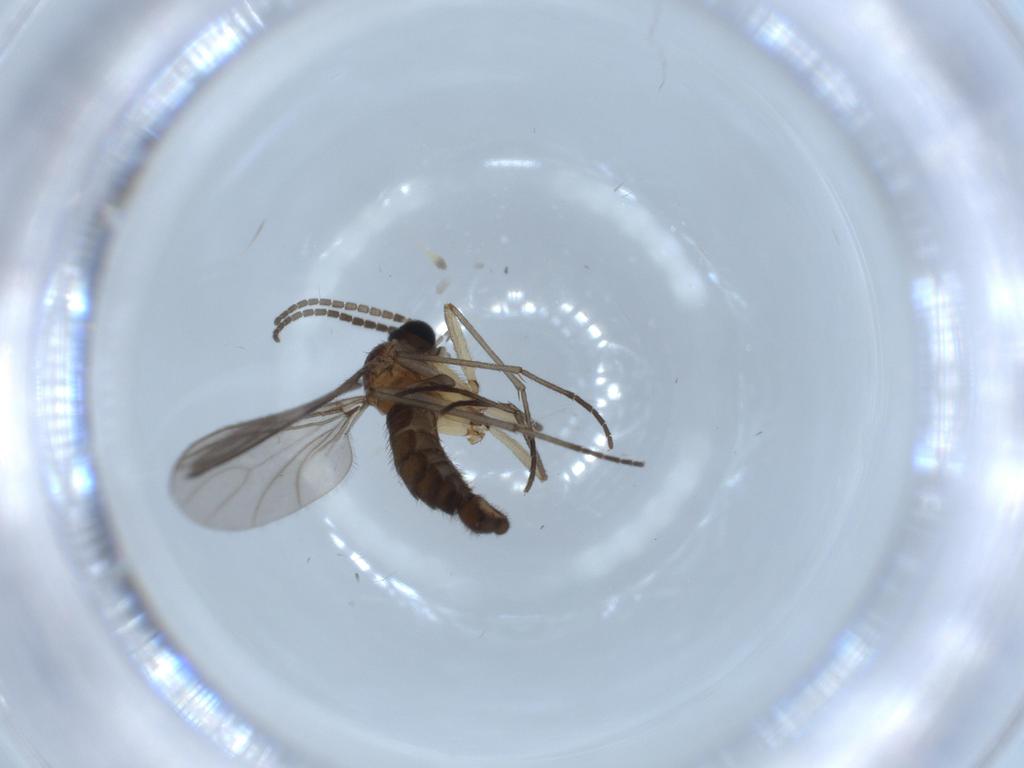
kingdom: Animalia
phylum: Arthropoda
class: Insecta
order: Diptera
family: Sciaridae
